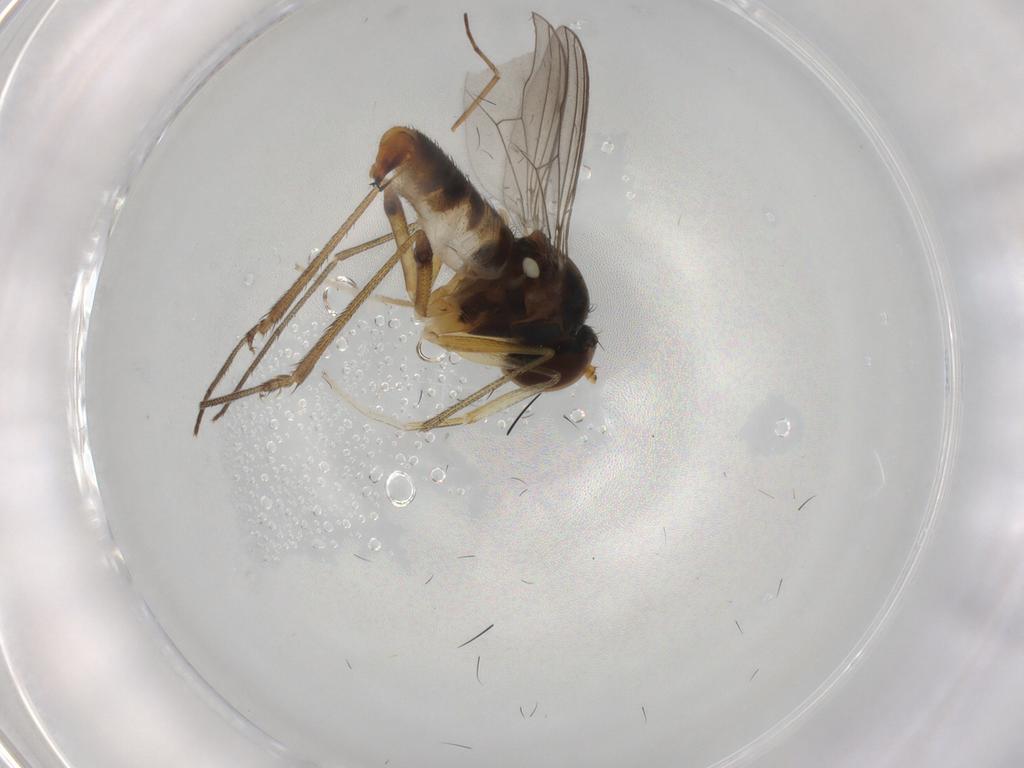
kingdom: Animalia
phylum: Arthropoda
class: Insecta
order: Diptera
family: Dolichopodidae
